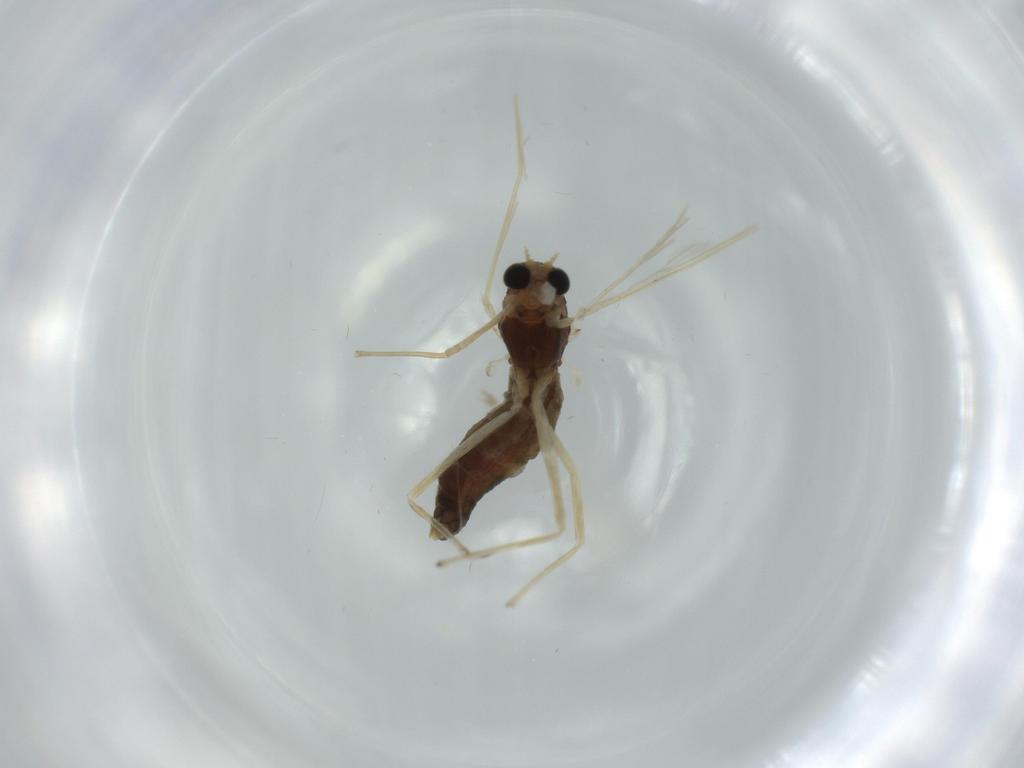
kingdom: Animalia
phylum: Arthropoda
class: Insecta
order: Diptera
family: Chironomidae
